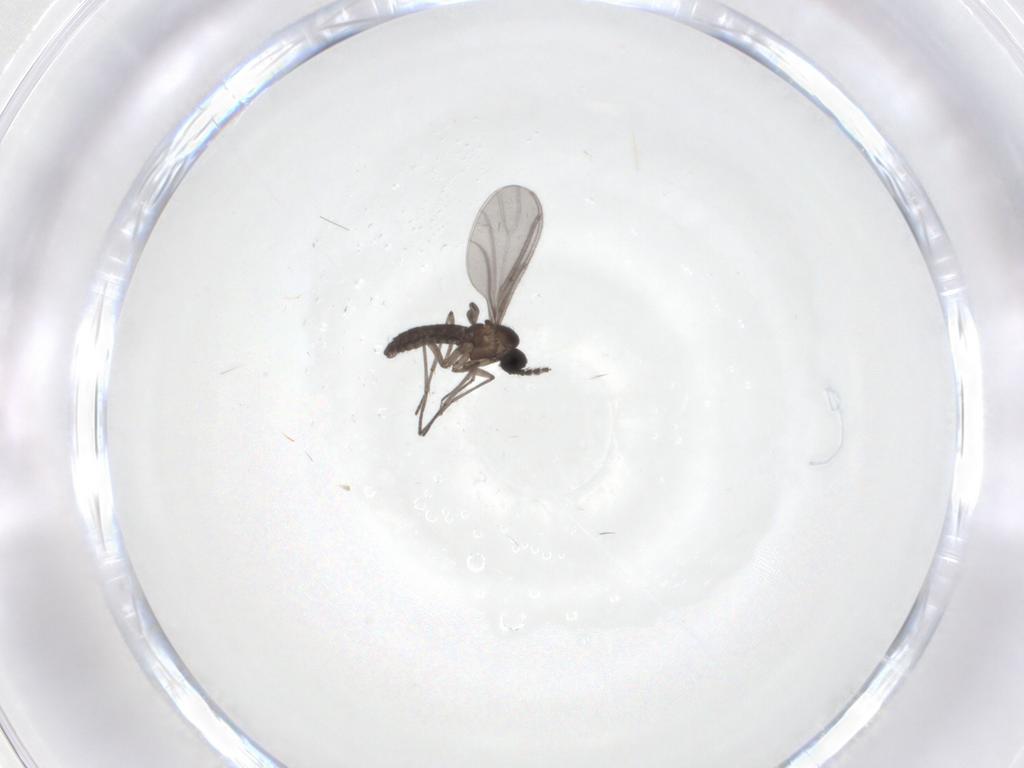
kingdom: Animalia
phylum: Arthropoda
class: Insecta
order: Diptera
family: Sciaridae
